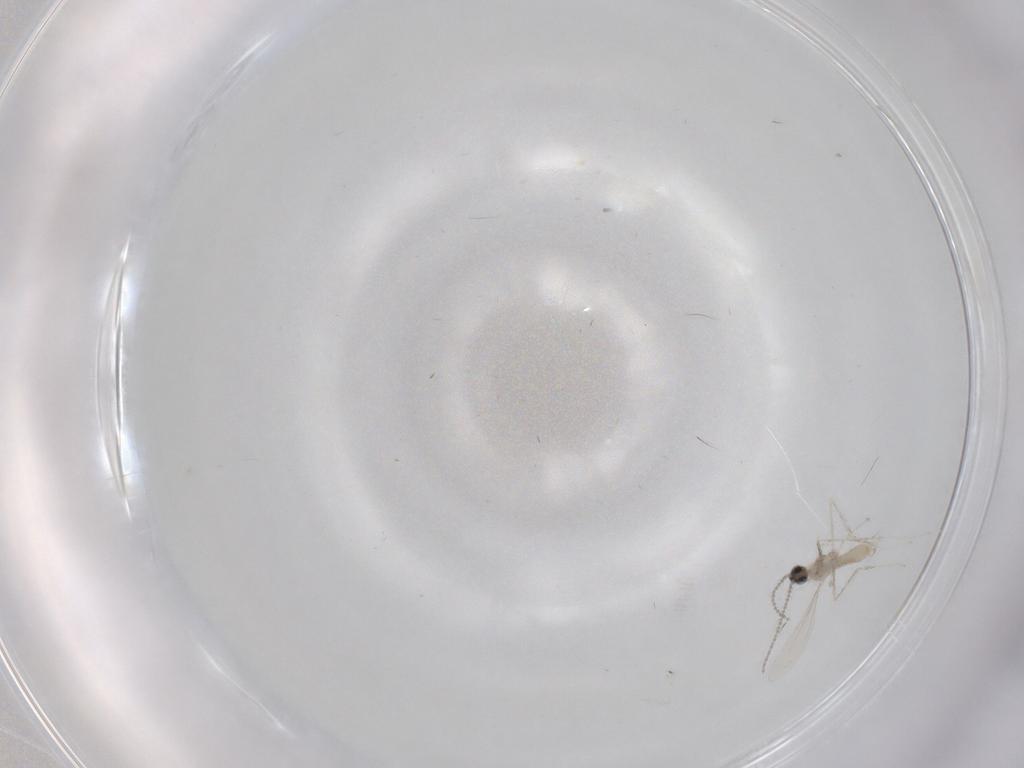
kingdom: Animalia
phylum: Arthropoda
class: Insecta
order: Diptera
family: Cecidomyiidae
